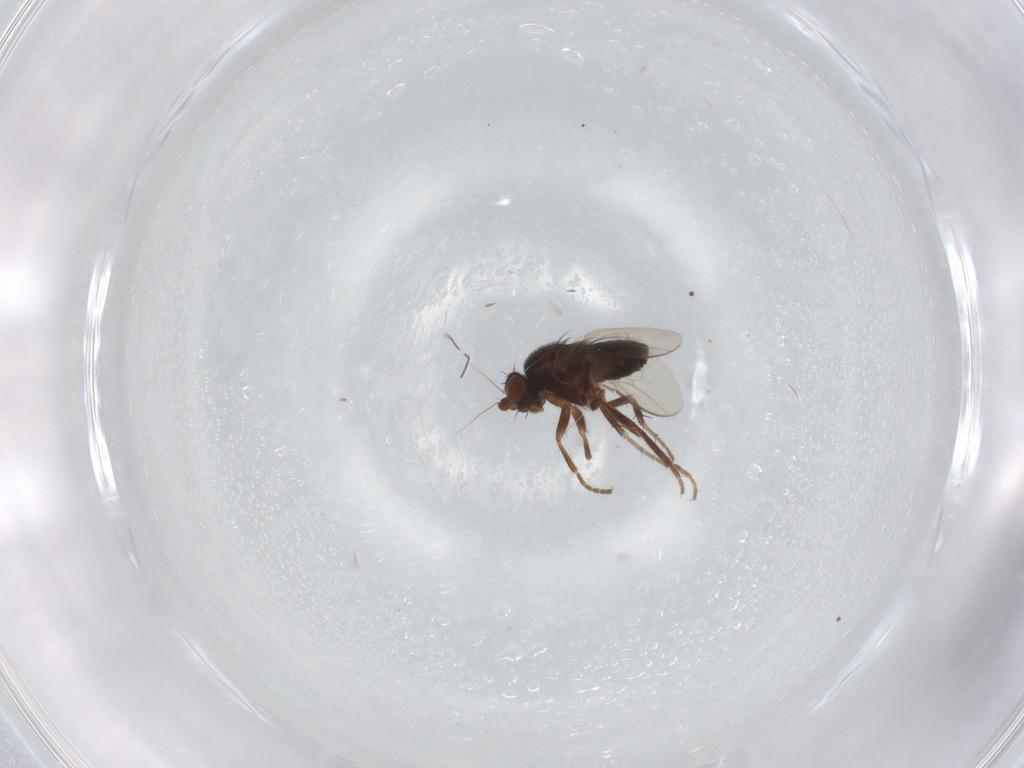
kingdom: Animalia
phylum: Arthropoda
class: Insecta
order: Diptera
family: Sphaeroceridae
